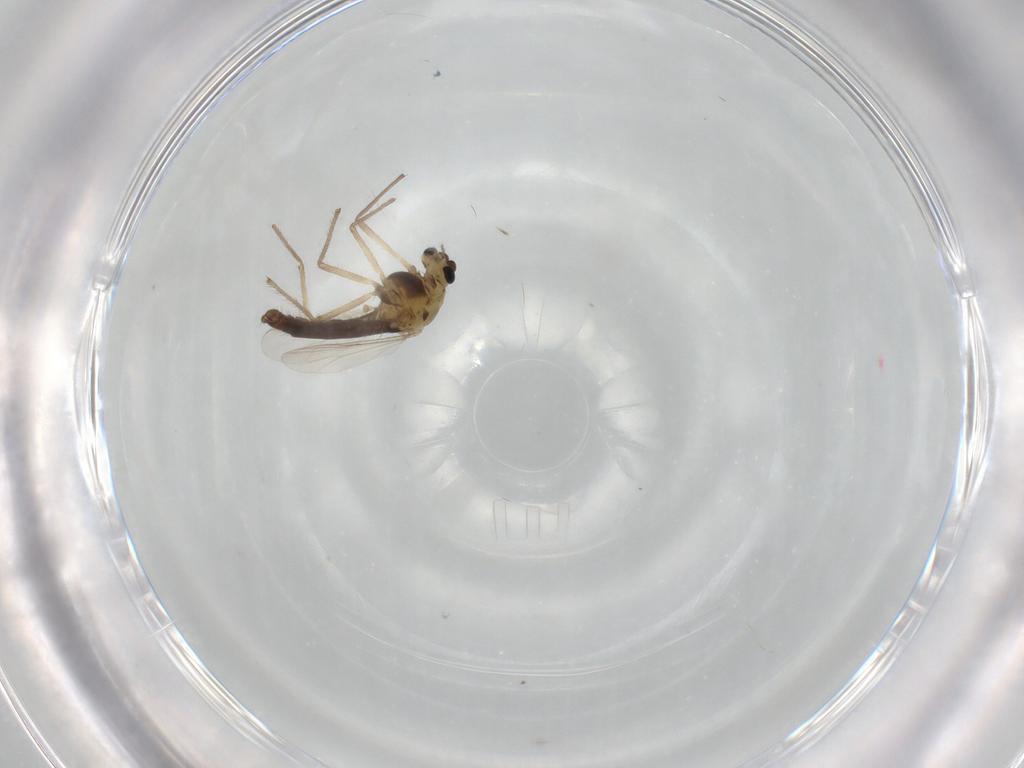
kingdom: Animalia
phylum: Arthropoda
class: Insecta
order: Diptera
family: Chironomidae
